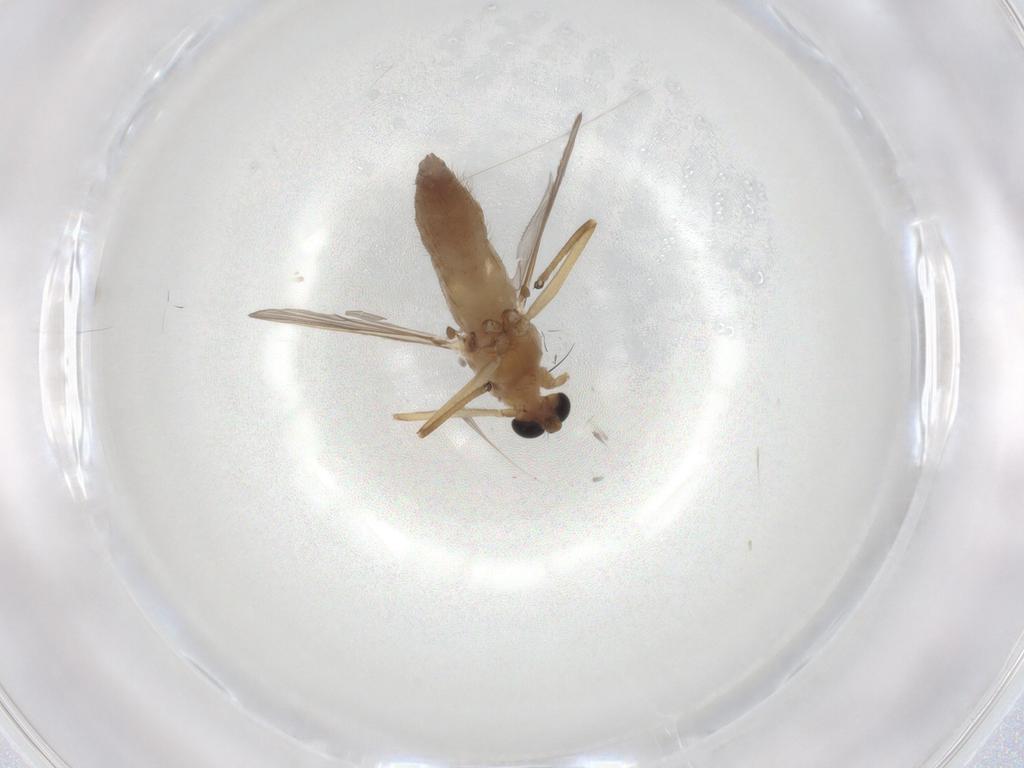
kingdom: Animalia
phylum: Arthropoda
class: Insecta
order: Diptera
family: Chironomidae
